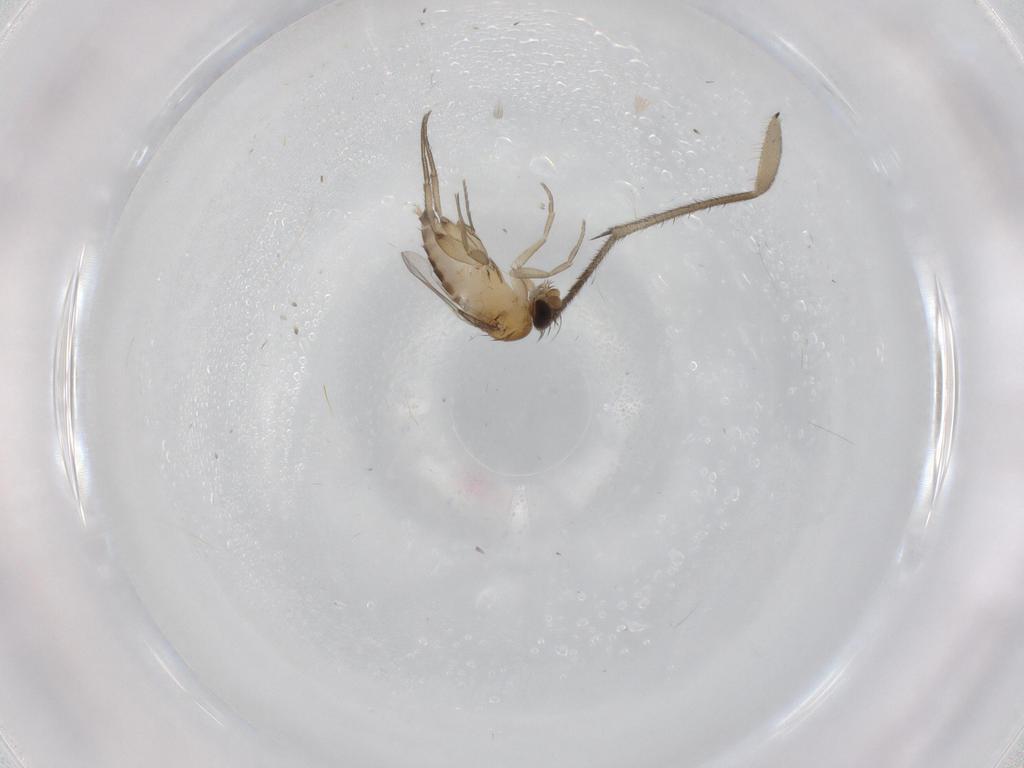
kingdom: Animalia
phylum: Arthropoda
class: Insecta
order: Diptera
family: Phoridae
